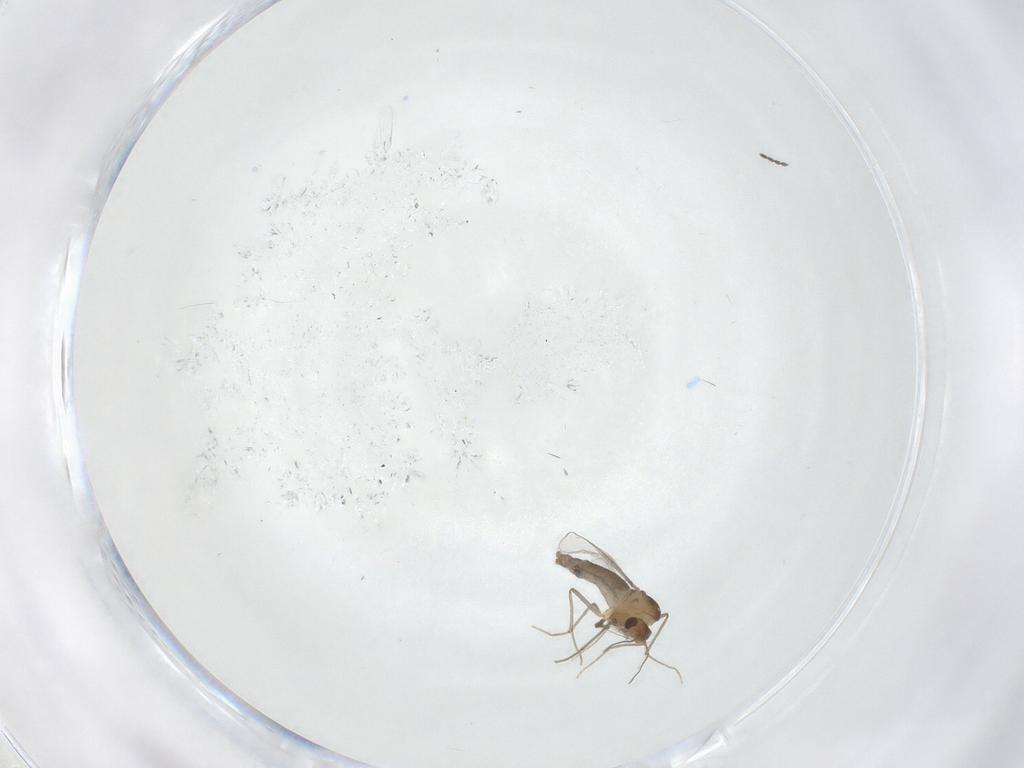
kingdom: Animalia
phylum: Arthropoda
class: Insecta
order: Diptera
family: Chironomidae
